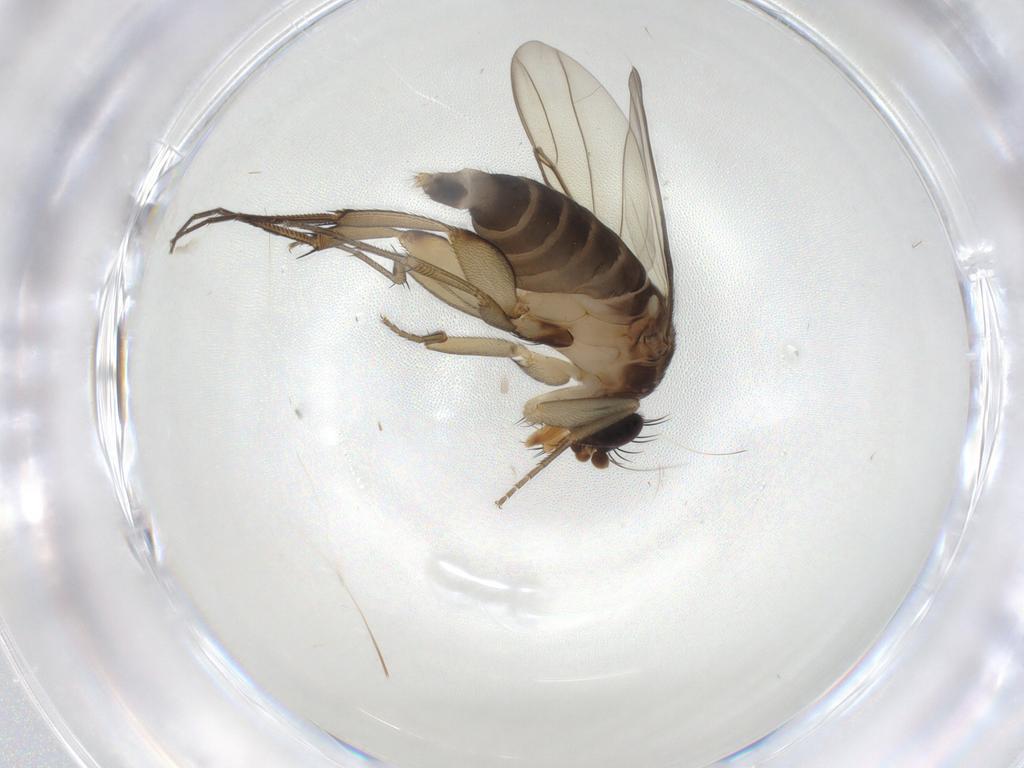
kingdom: Animalia
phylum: Arthropoda
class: Insecta
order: Diptera
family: Phoridae
